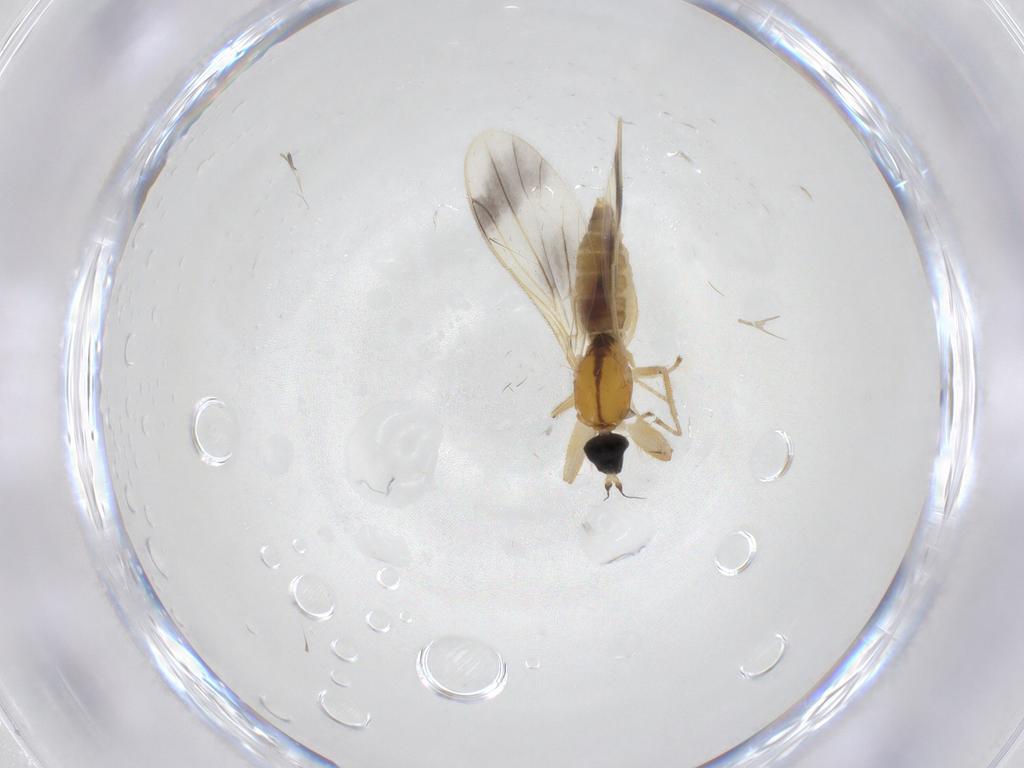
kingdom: Animalia
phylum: Arthropoda
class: Insecta
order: Diptera
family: Empididae
